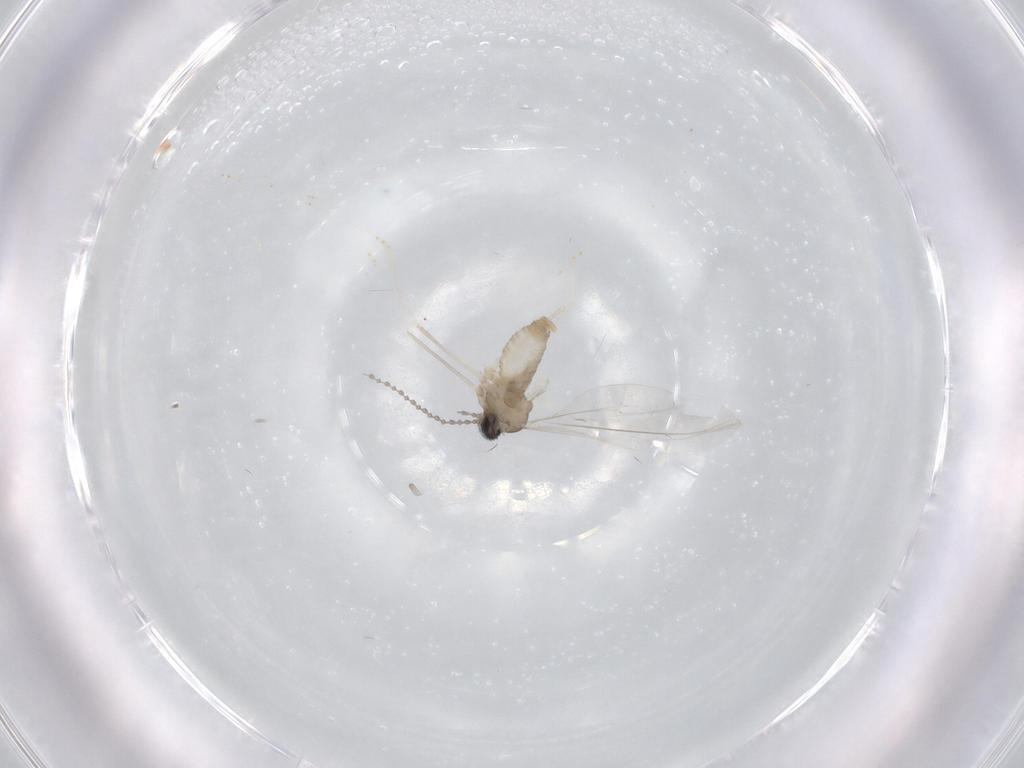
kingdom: Animalia
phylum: Arthropoda
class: Insecta
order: Diptera
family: Cecidomyiidae
